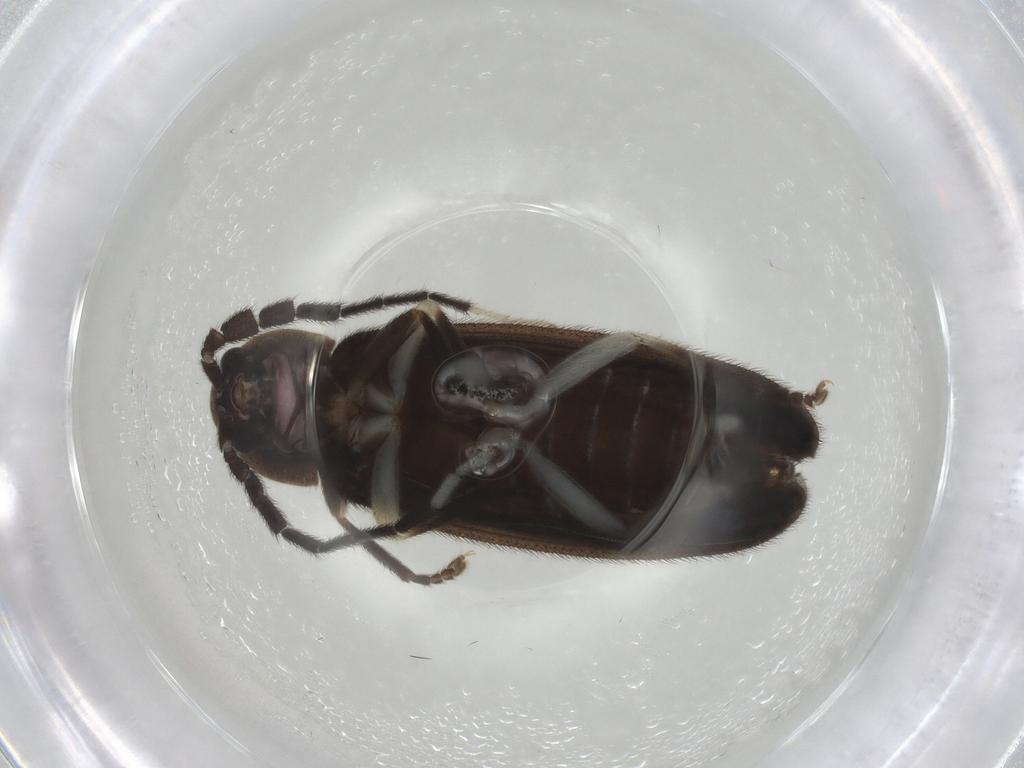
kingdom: Animalia
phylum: Arthropoda
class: Insecta
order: Coleoptera
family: Lampyridae
